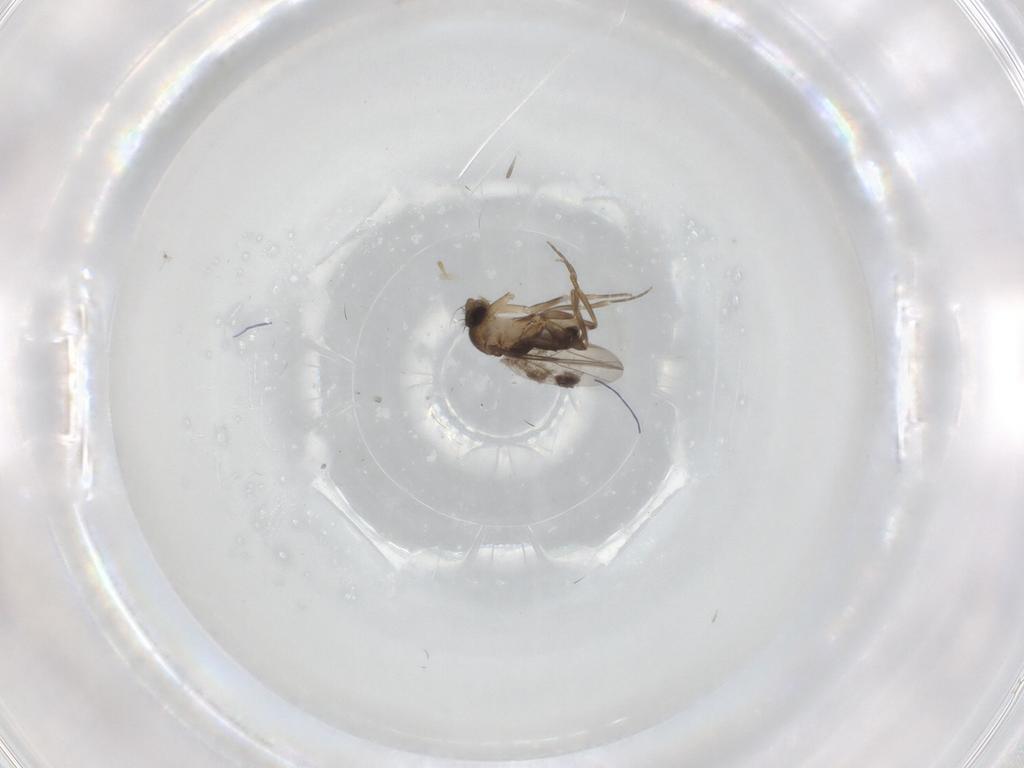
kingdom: Animalia
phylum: Arthropoda
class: Insecta
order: Diptera
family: Phoridae
